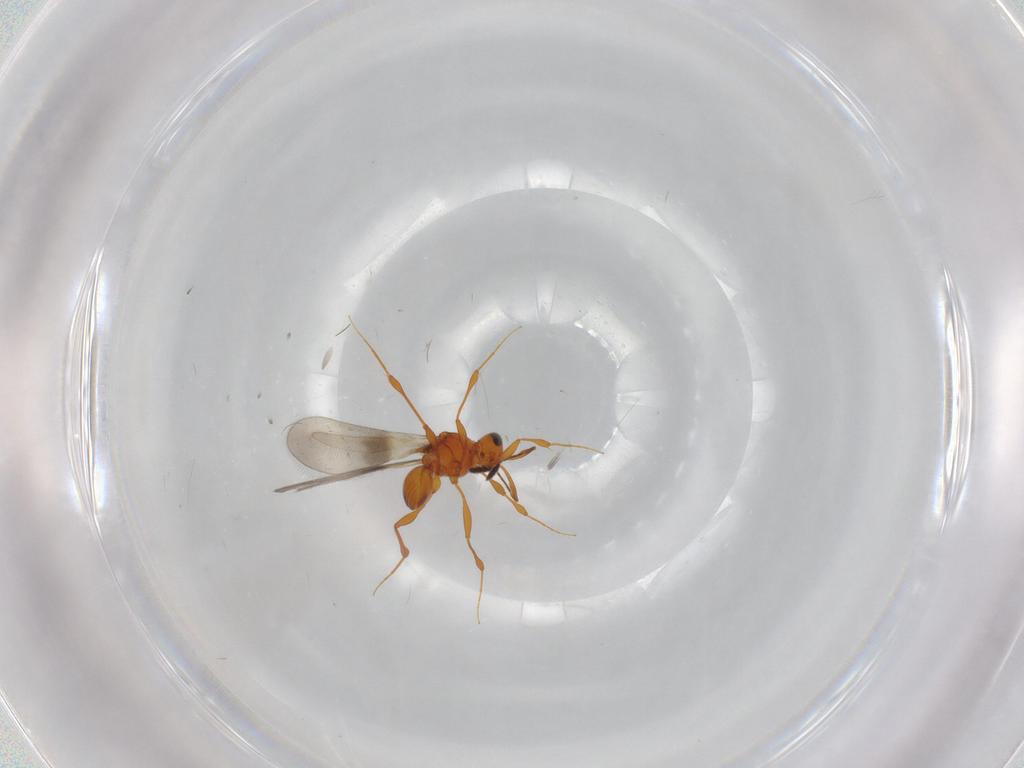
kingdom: Animalia
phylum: Arthropoda
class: Insecta
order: Hymenoptera
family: Platygastridae
